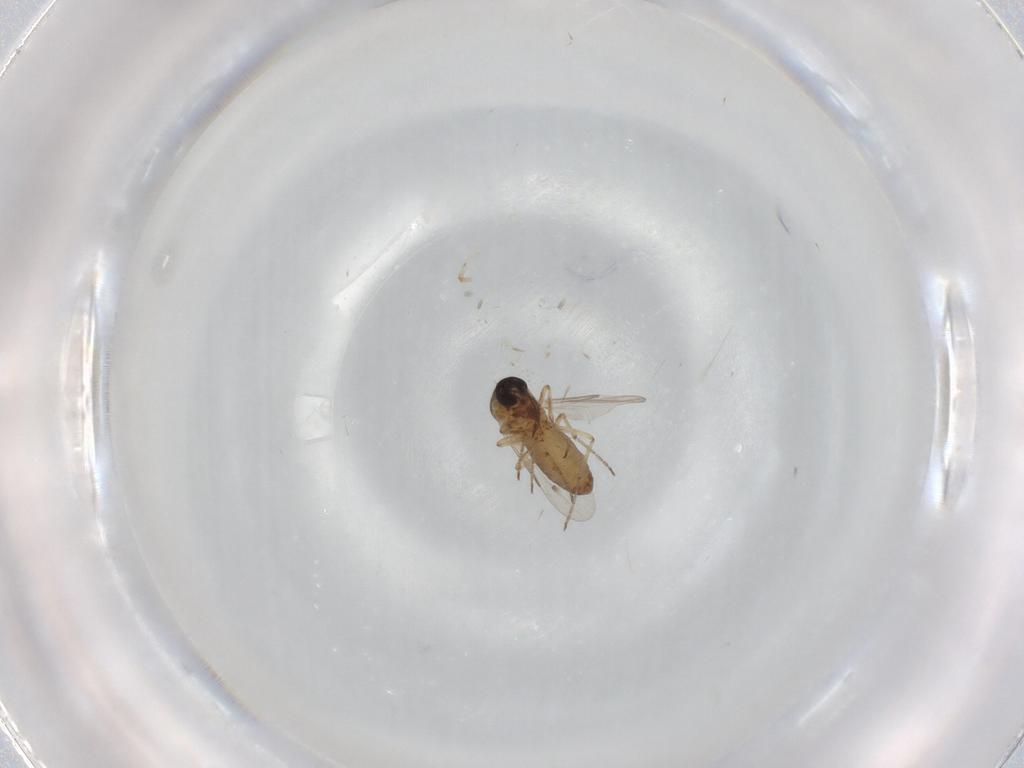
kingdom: Animalia
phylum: Arthropoda
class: Insecta
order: Diptera
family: Ceratopogonidae
